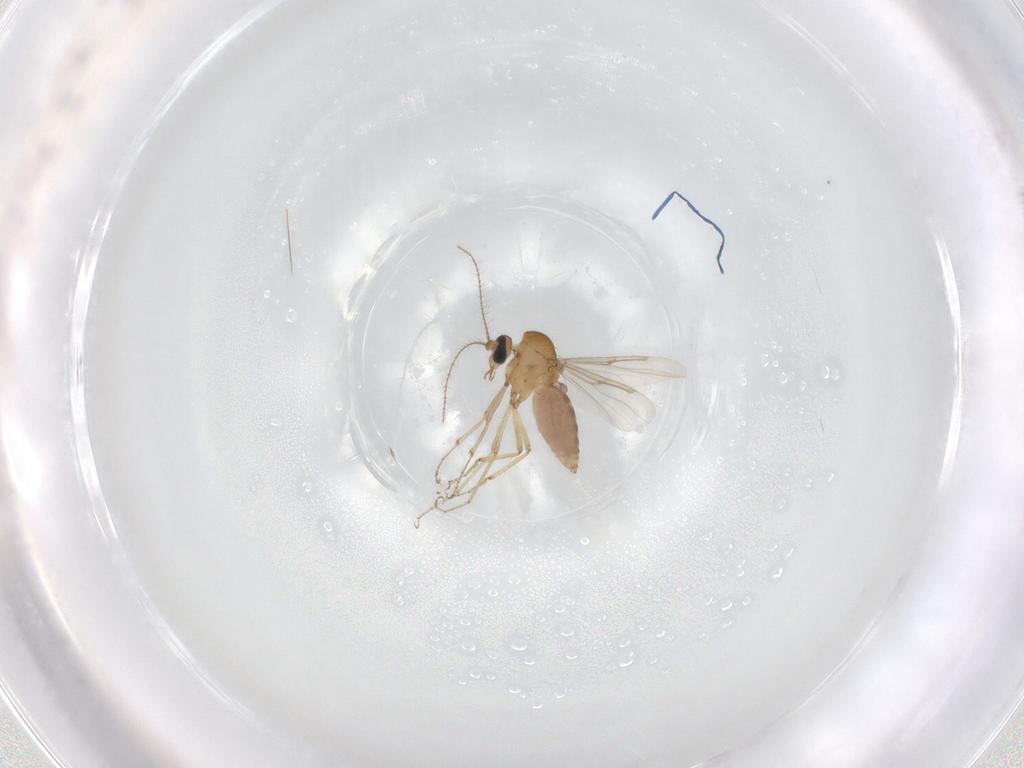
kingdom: Animalia
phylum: Arthropoda
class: Insecta
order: Diptera
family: Ceratopogonidae
